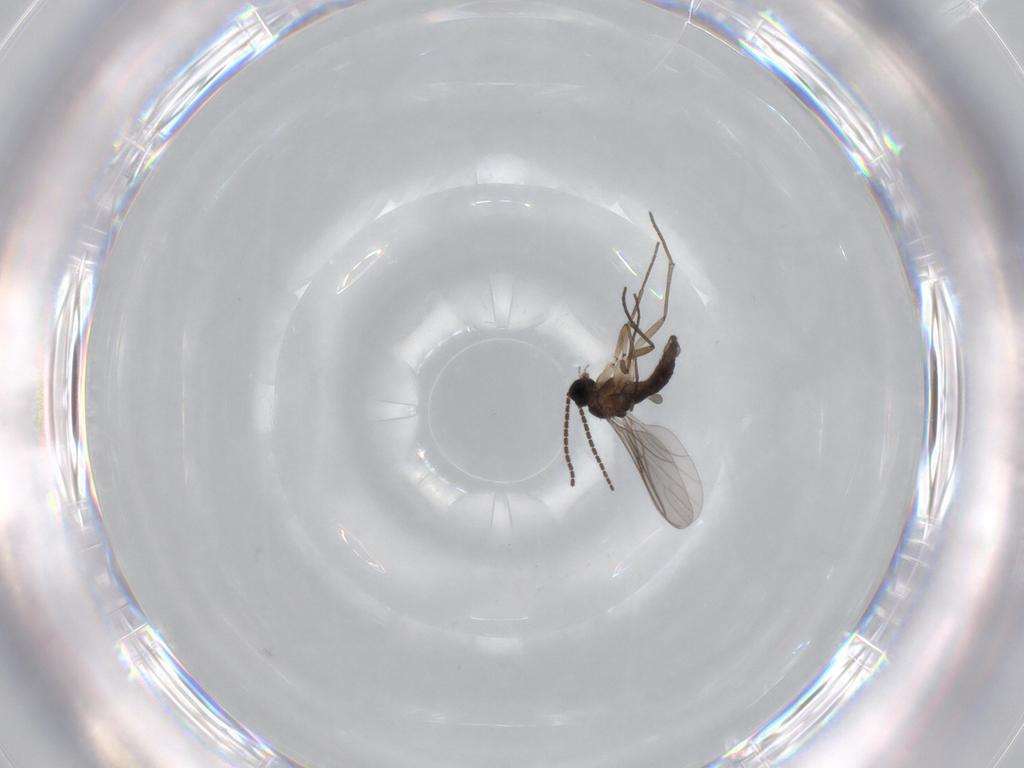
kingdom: Animalia
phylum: Arthropoda
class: Insecta
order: Diptera
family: Sciaridae
